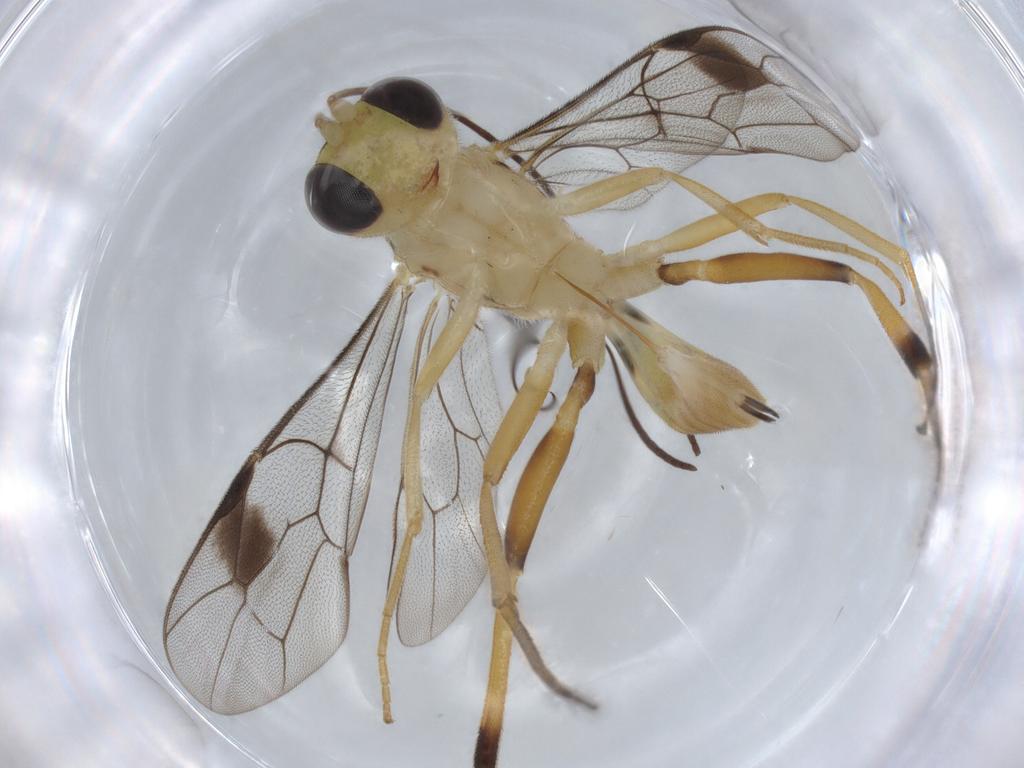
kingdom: Animalia
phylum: Arthropoda
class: Insecta
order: Hymenoptera
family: Ichneumonidae
